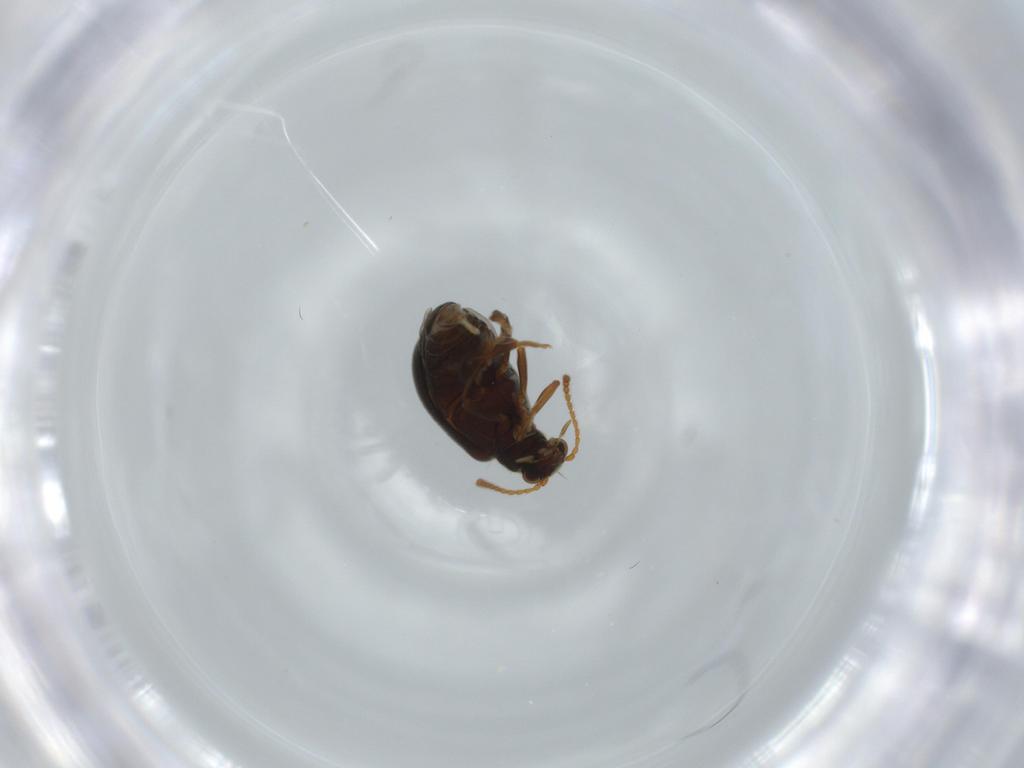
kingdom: Animalia
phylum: Arthropoda
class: Insecta
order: Coleoptera
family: Aderidae
